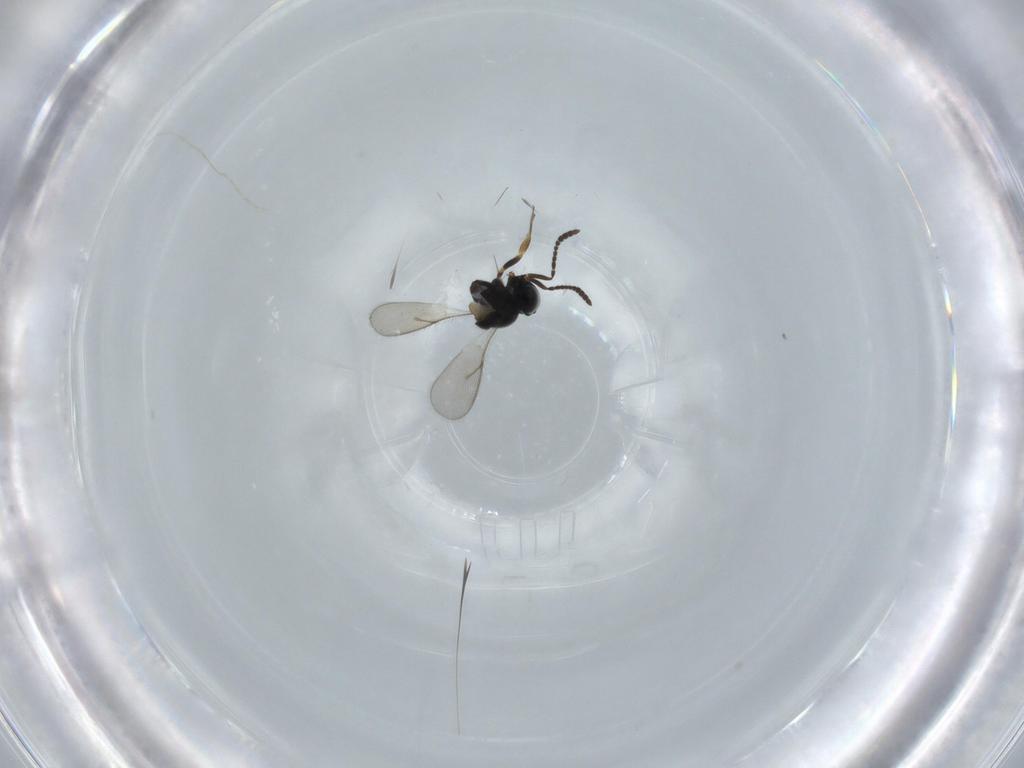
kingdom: Animalia
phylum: Arthropoda
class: Insecta
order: Hymenoptera
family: Scelionidae
